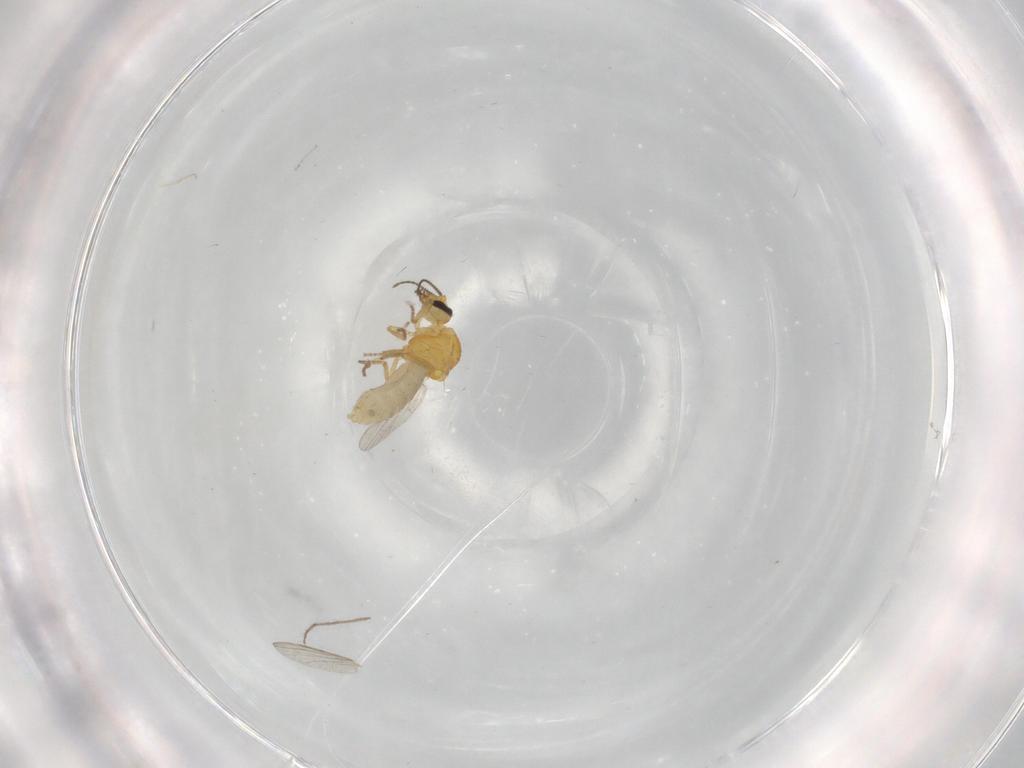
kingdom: Animalia
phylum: Arthropoda
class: Insecta
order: Diptera
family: Ceratopogonidae
